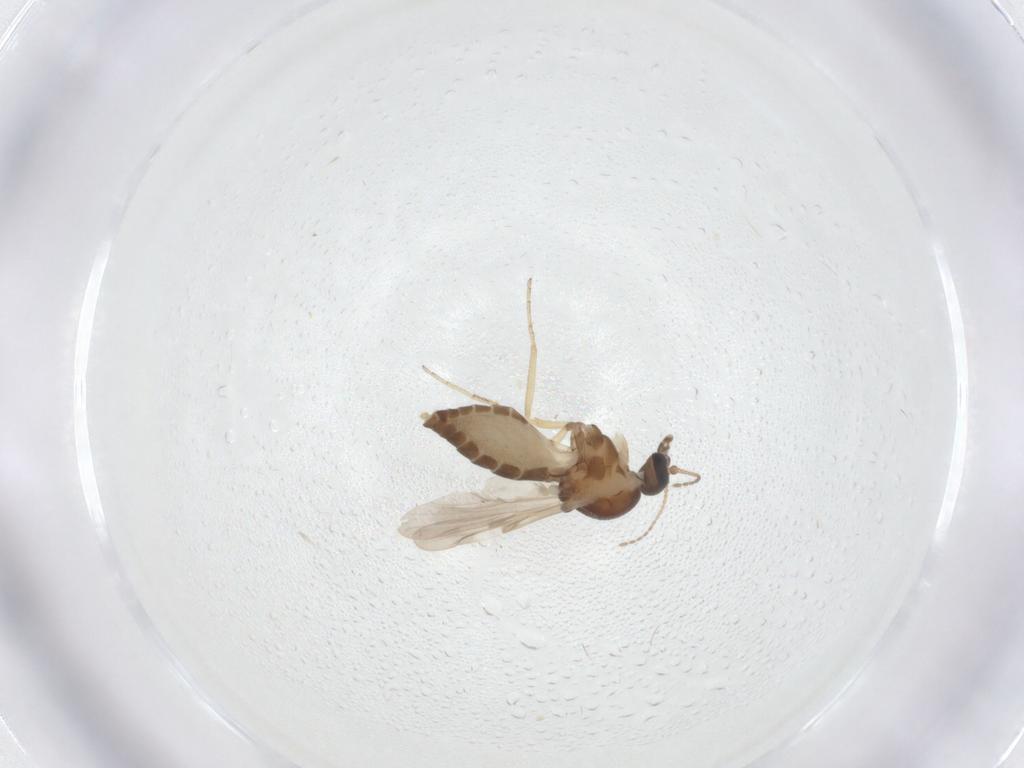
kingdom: Animalia
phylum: Arthropoda
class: Insecta
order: Diptera
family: Ceratopogonidae
